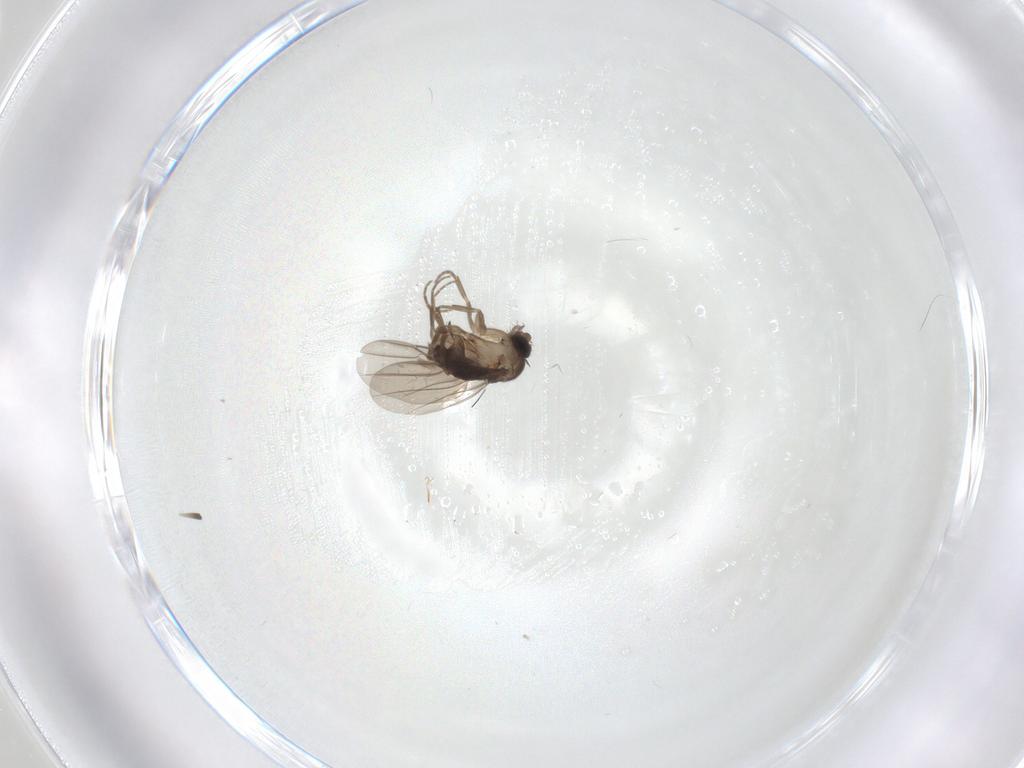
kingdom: Animalia
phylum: Arthropoda
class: Insecta
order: Diptera
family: Phoridae
